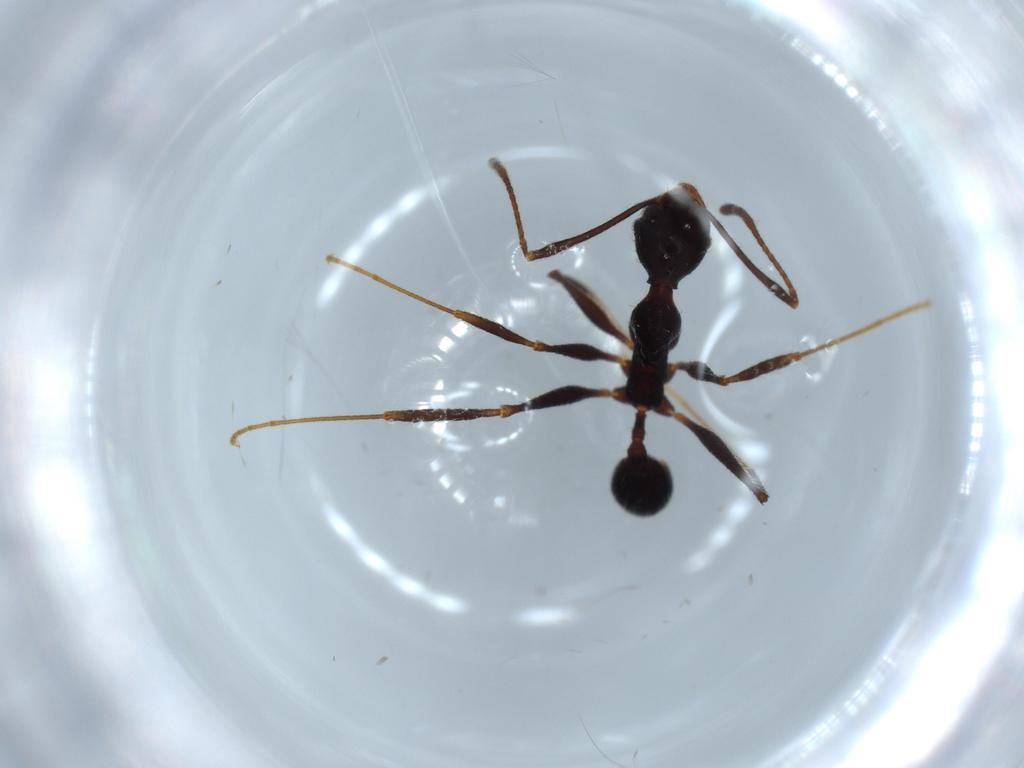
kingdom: Animalia
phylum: Arthropoda
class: Insecta
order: Hymenoptera
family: Formicidae
